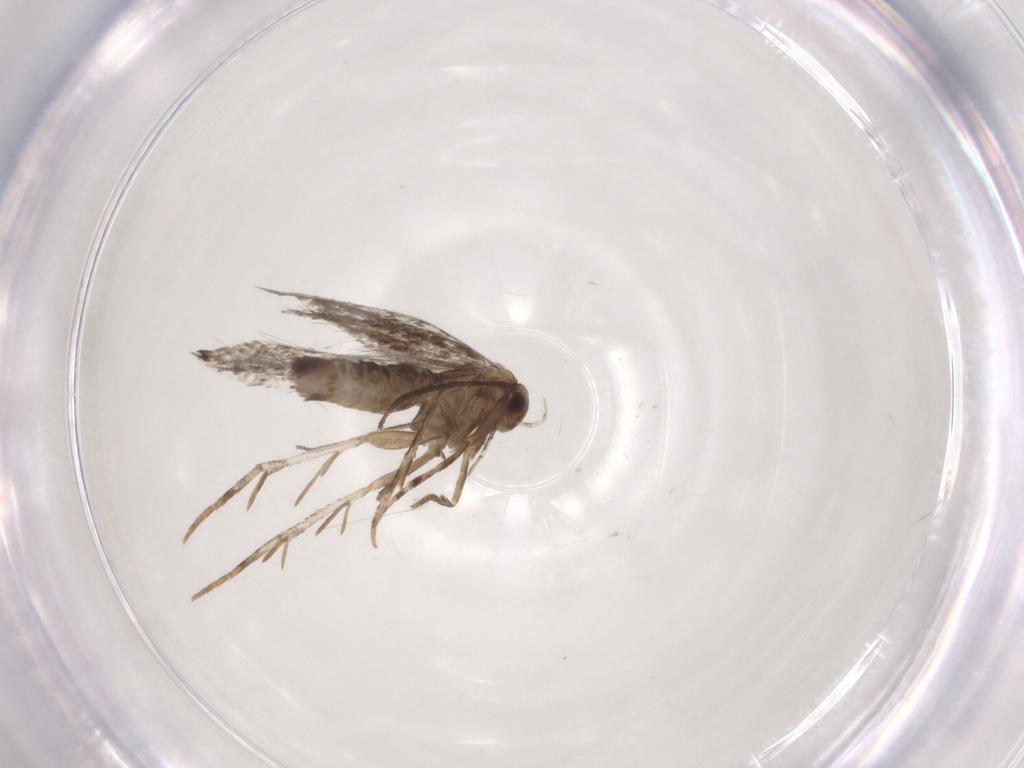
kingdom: Animalia
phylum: Arthropoda
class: Insecta
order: Lepidoptera
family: Elachistidae
